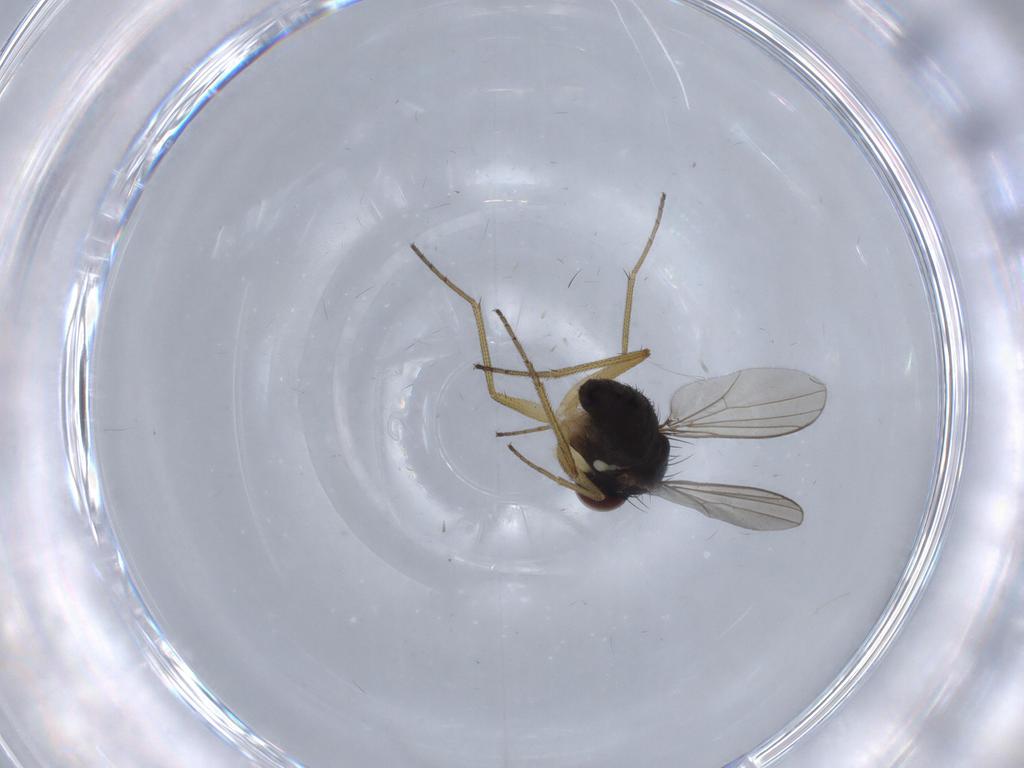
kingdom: Animalia
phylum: Arthropoda
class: Insecta
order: Diptera
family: Dolichopodidae
